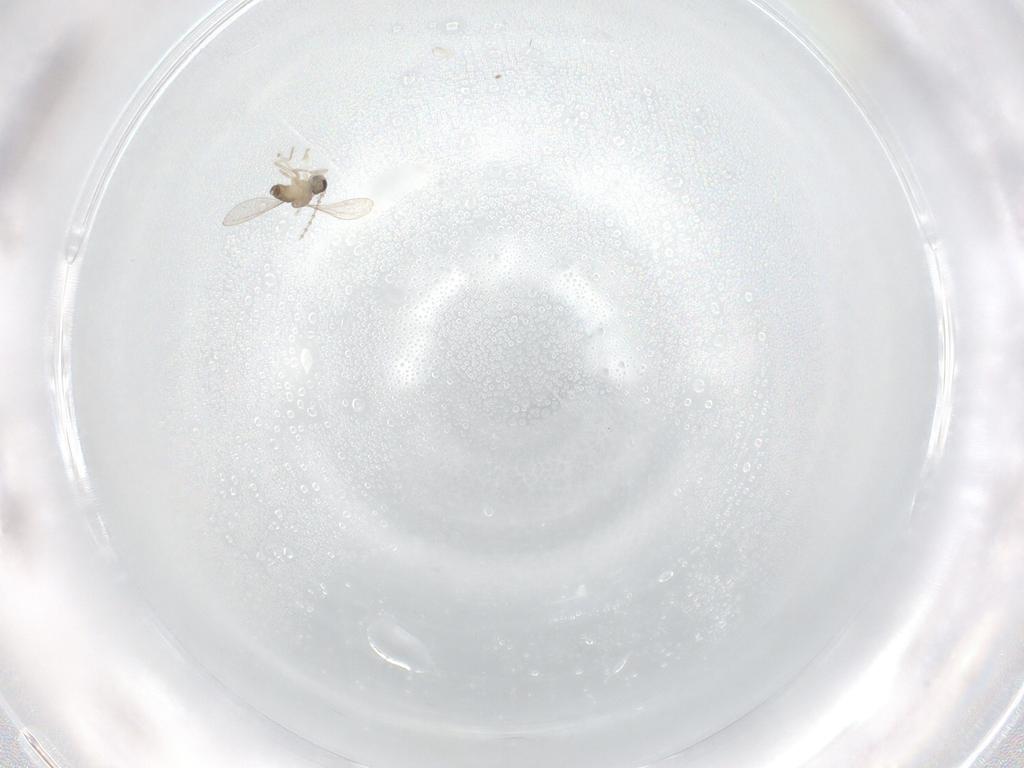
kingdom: Animalia
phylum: Arthropoda
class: Insecta
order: Diptera
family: Cecidomyiidae
